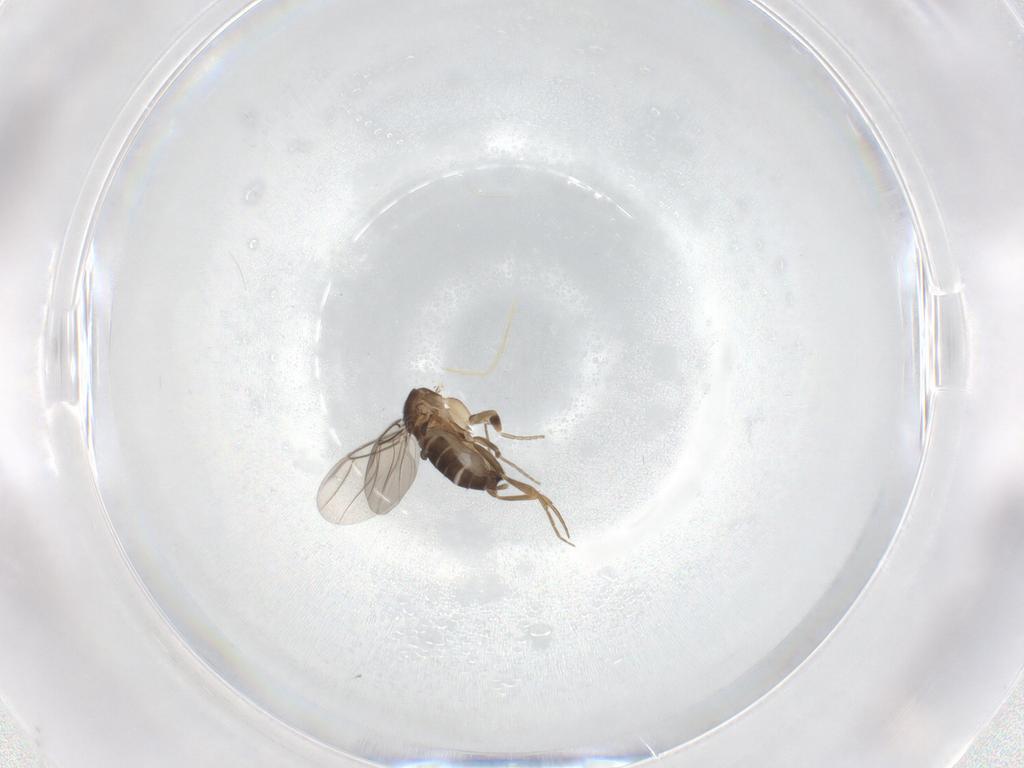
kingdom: Animalia
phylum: Arthropoda
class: Insecta
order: Diptera
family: Phoridae
